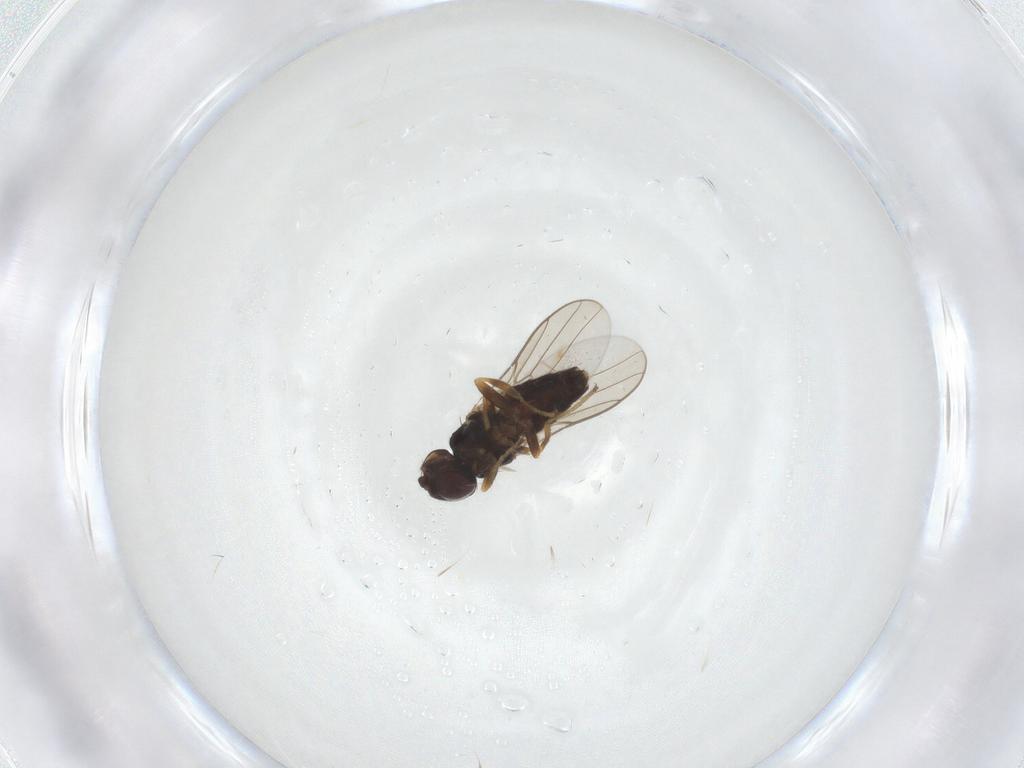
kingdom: Animalia
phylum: Arthropoda
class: Insecta
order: Diptera
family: Chloropidae
